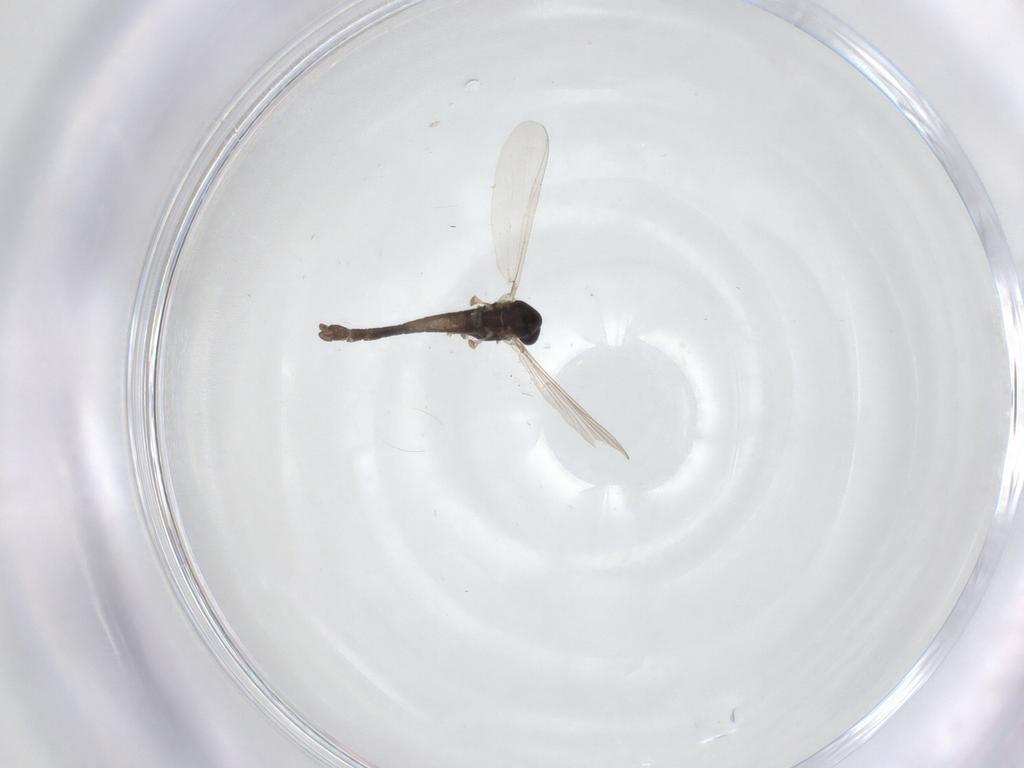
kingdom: Animalia
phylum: Arthropoda
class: Insecta
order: Diptera
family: Chironomidae
